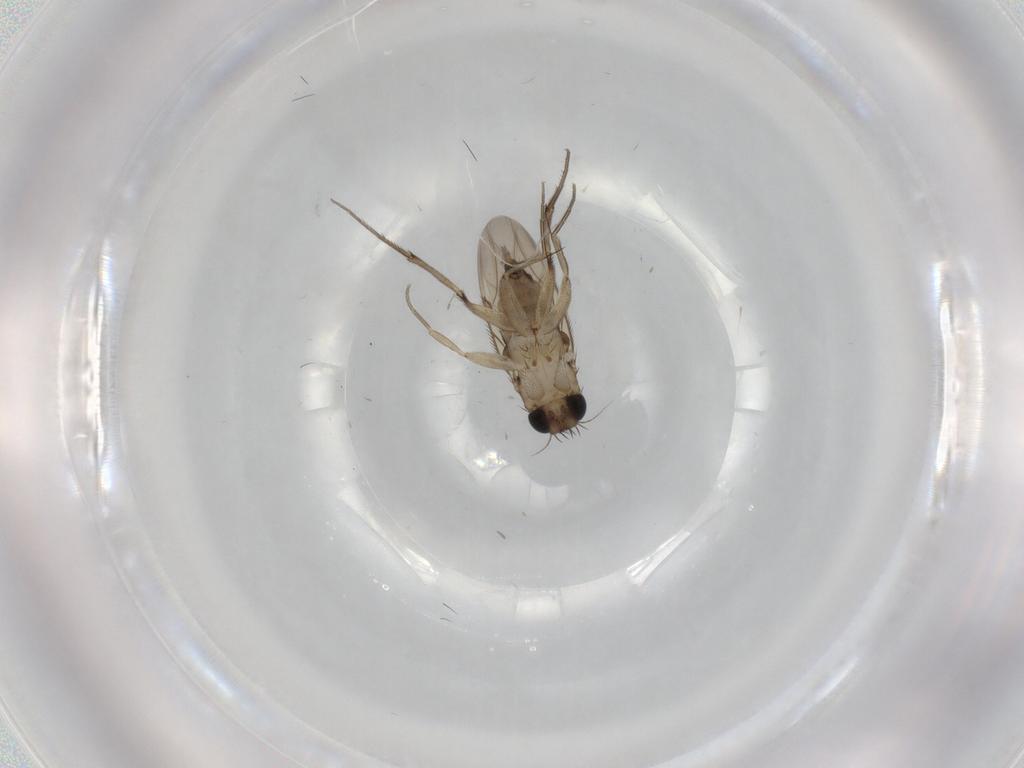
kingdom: Animalia
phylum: Arthropoda
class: Insecta
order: Diptera
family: Phoridae
